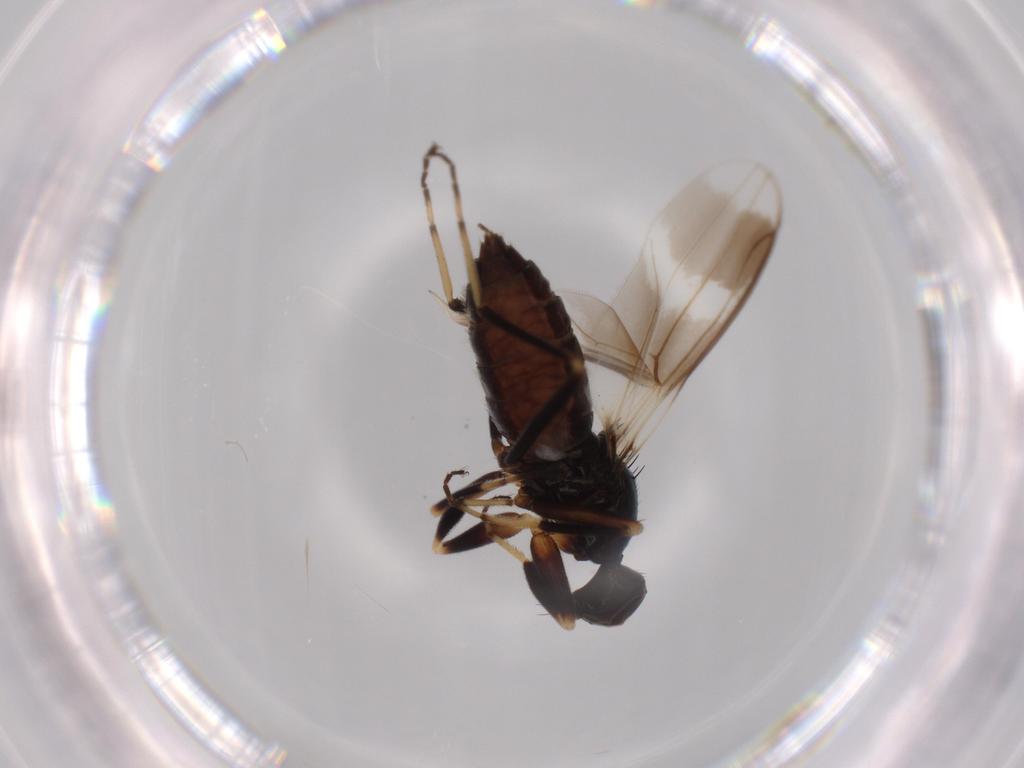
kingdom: Animalia
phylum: Arthropoda
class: Insecta
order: Diptera
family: Hybotidae
